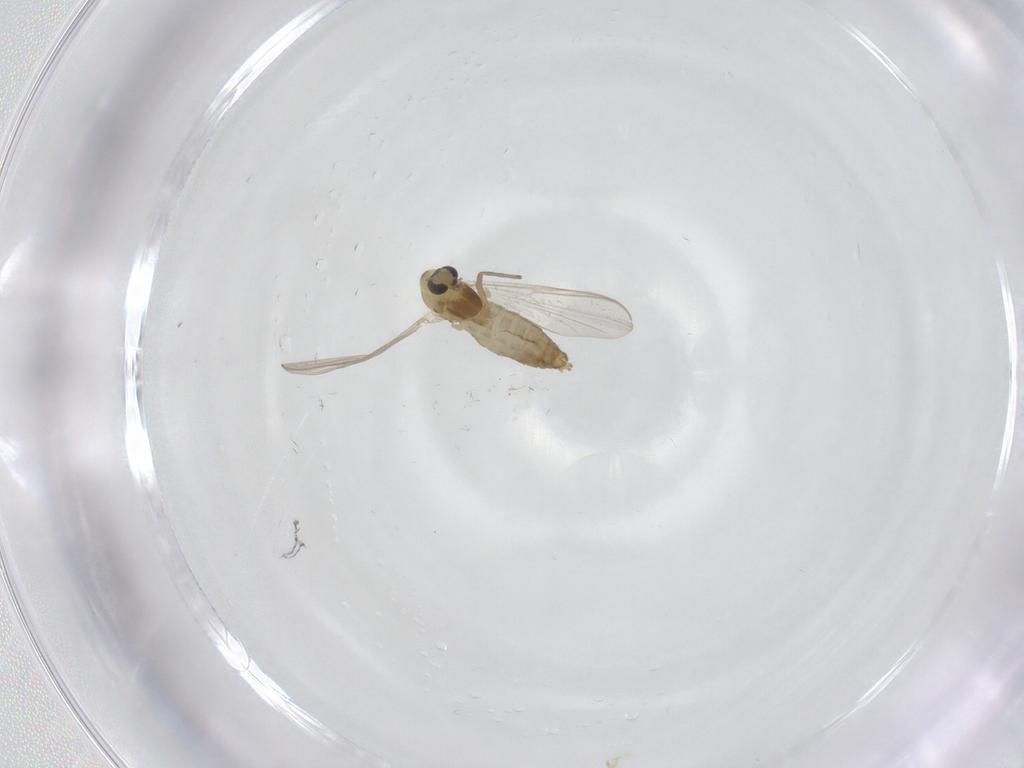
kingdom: Animalia
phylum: Arthropoda
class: Insecta
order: Diptera
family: Chironomidae
